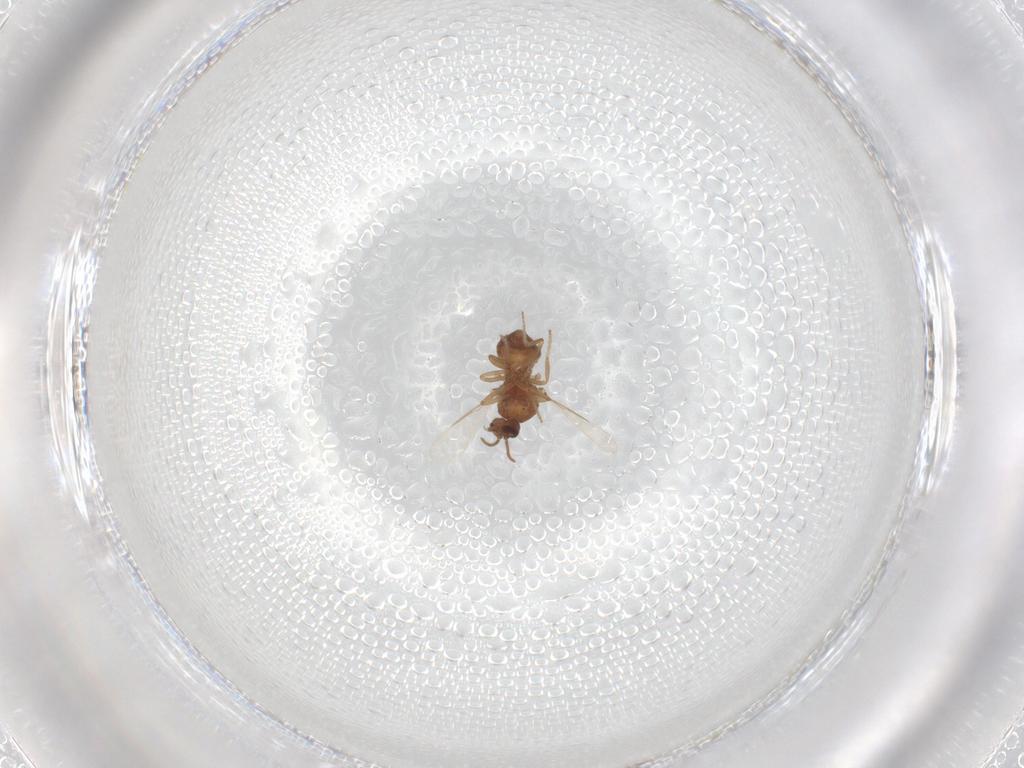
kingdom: Animalia
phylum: Arthropoda
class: Insecta
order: Diptera
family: Ceratopogonidae
